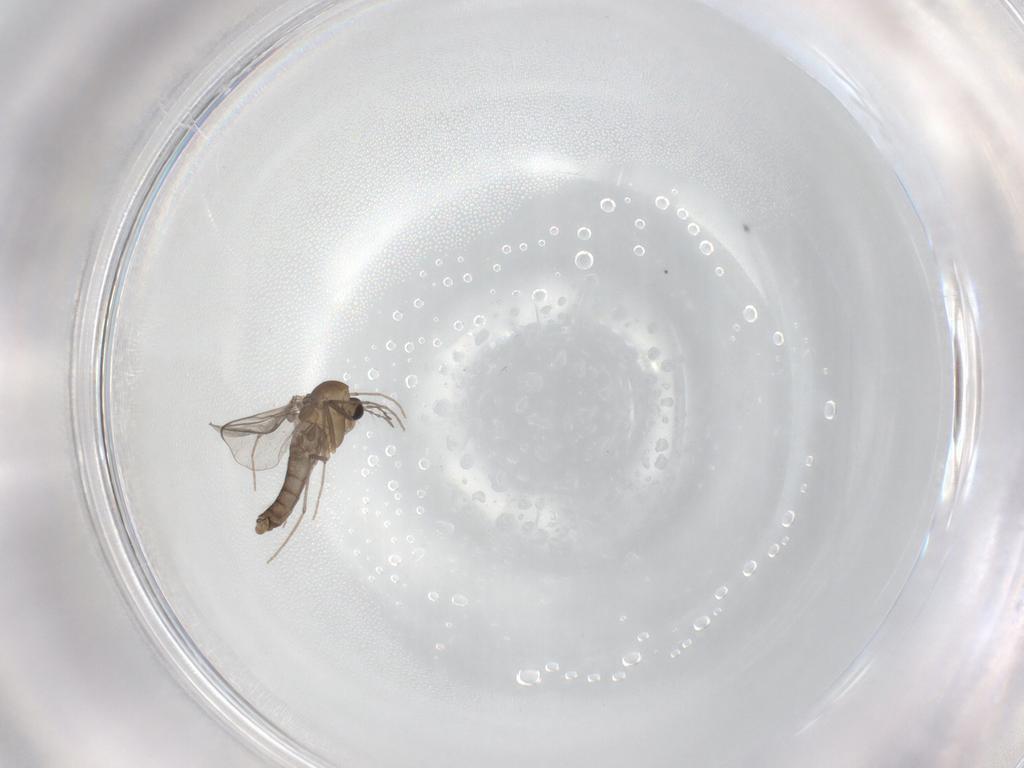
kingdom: Animalia
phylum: Arthropoda
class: Insecta
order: Diptera
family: Chironomidae
